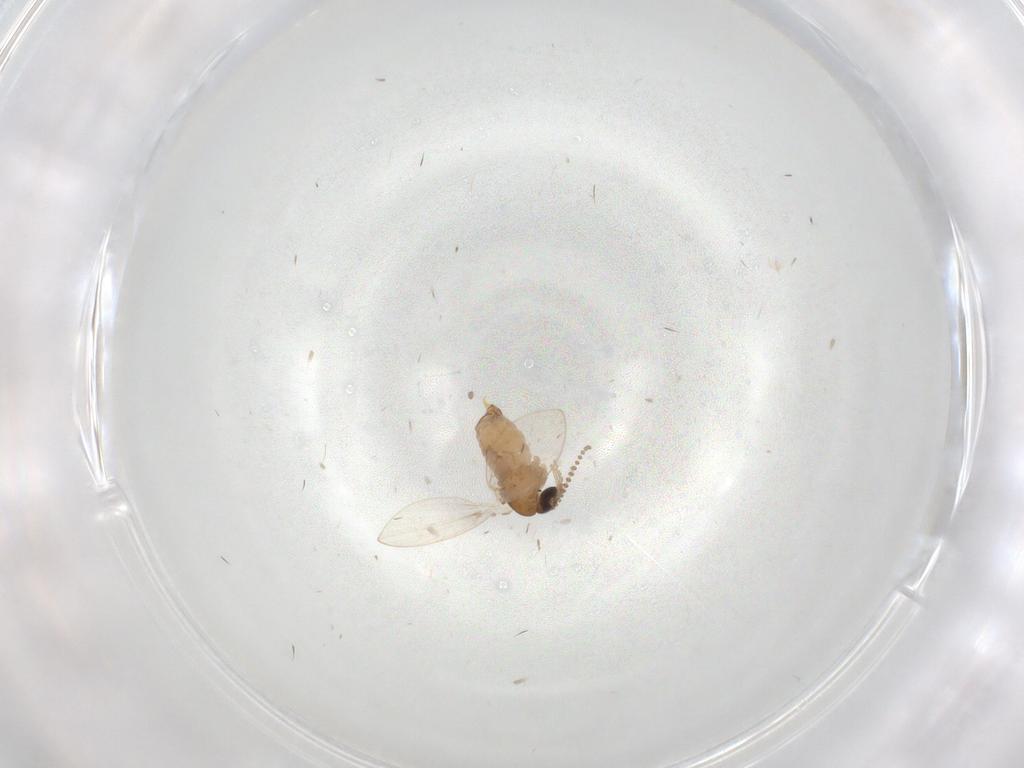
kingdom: Animalia
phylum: Arthropoda
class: Insecta
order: Diptera
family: Psychodidae
